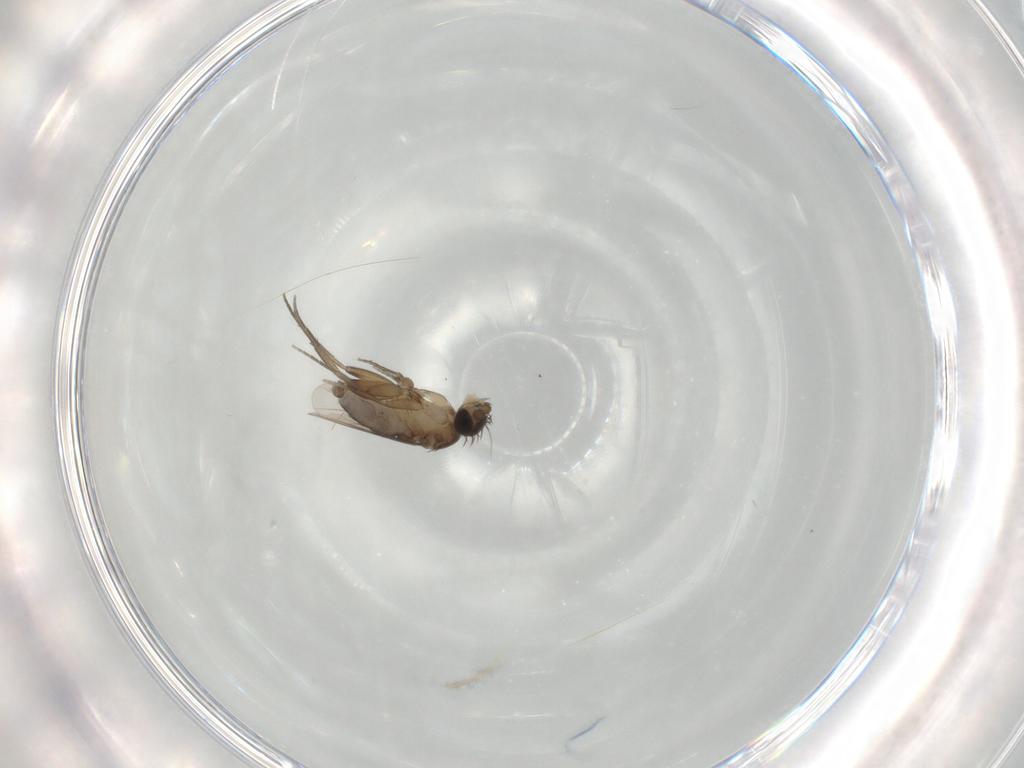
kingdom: Animalia
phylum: Arthropoda
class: Insecta
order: Diptera
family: Phoridae
